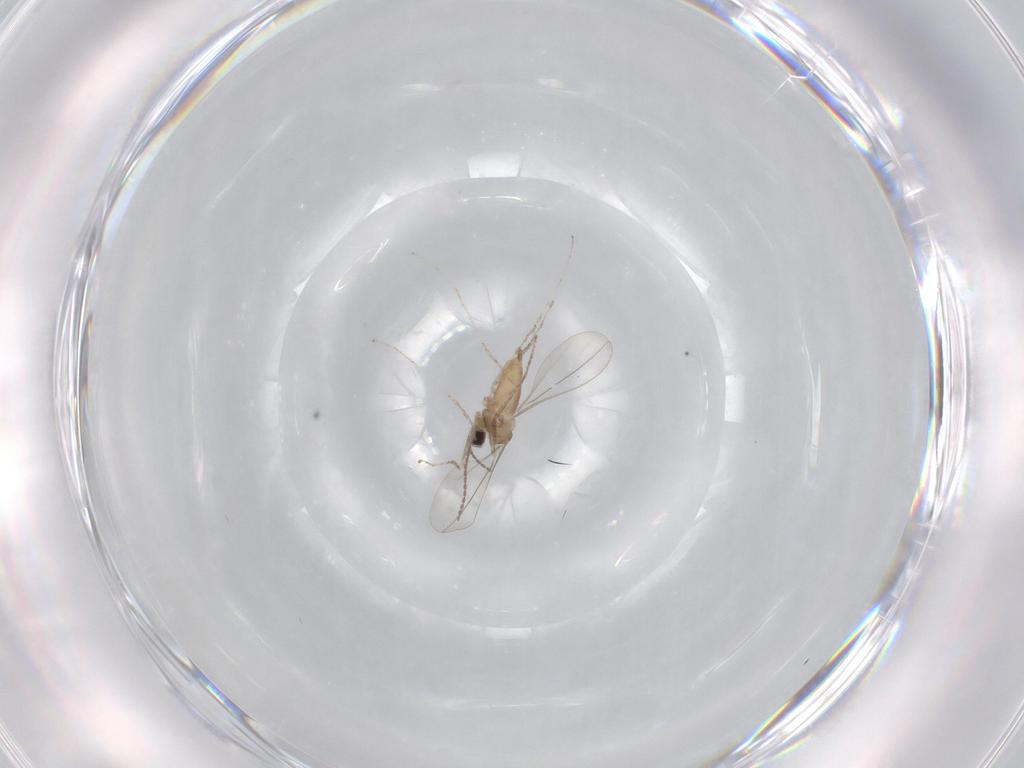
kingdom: Animalia
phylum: Arthropoda
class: Insecta
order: Diptera
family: Cecidomyiidae
